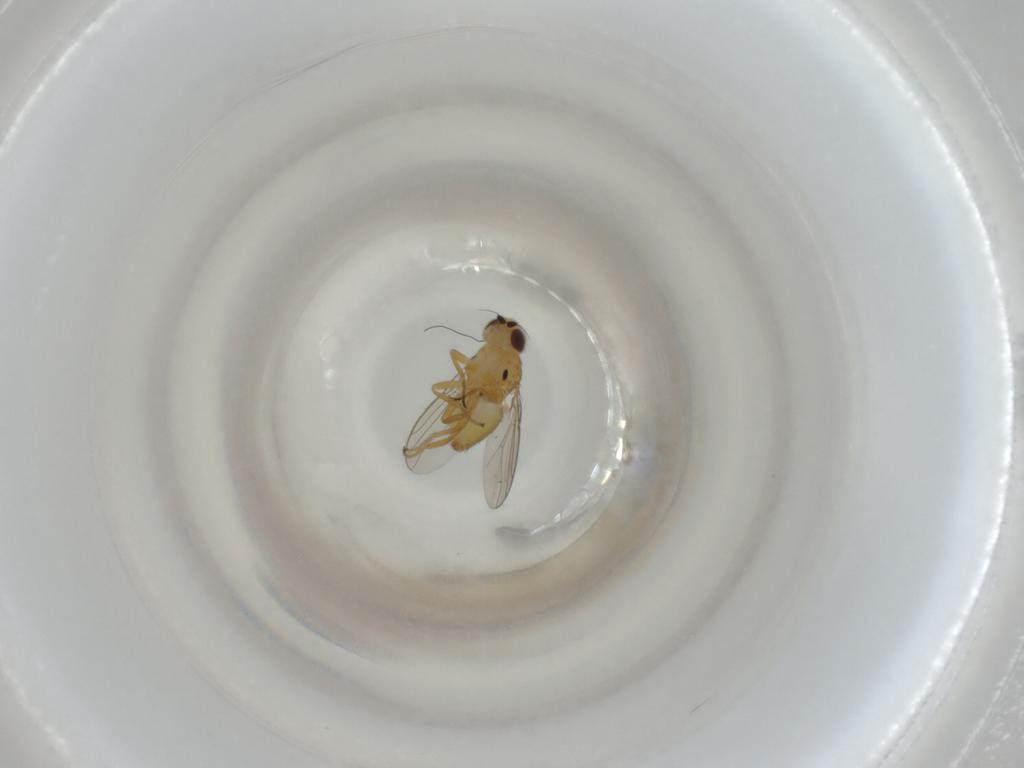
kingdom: Animalia
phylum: Arthropoda
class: Insecta
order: Diptera
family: Chloropidae
